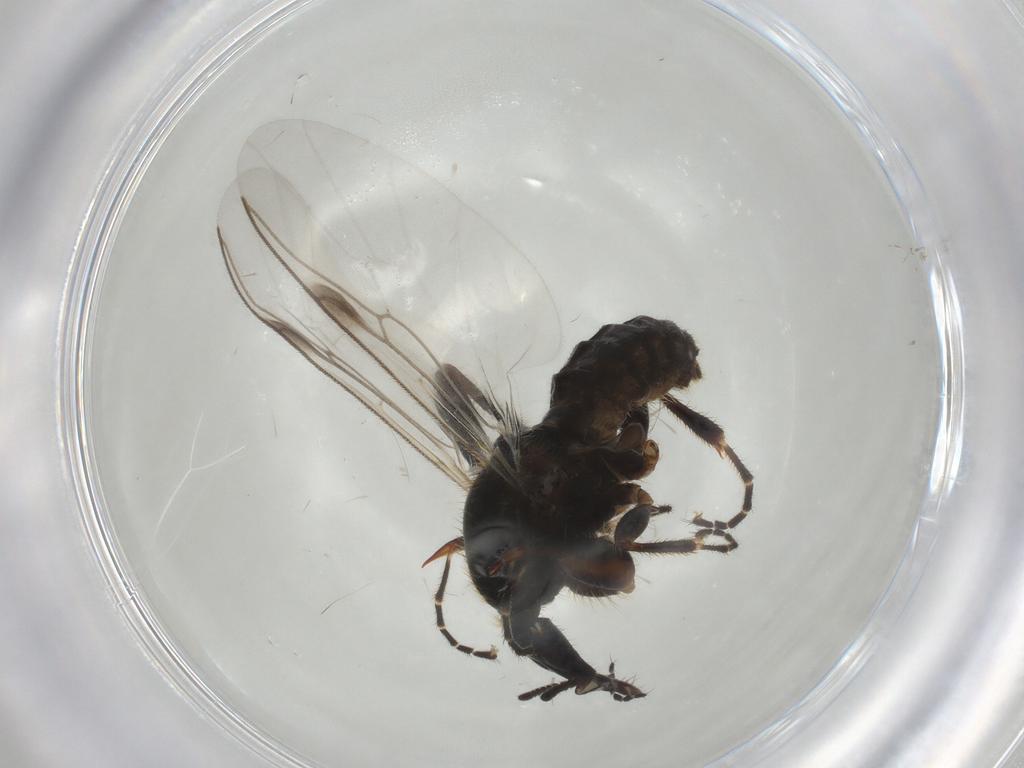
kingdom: Animalia
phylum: Arthropoda
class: Insecta
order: Diptera
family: Bibionidae
